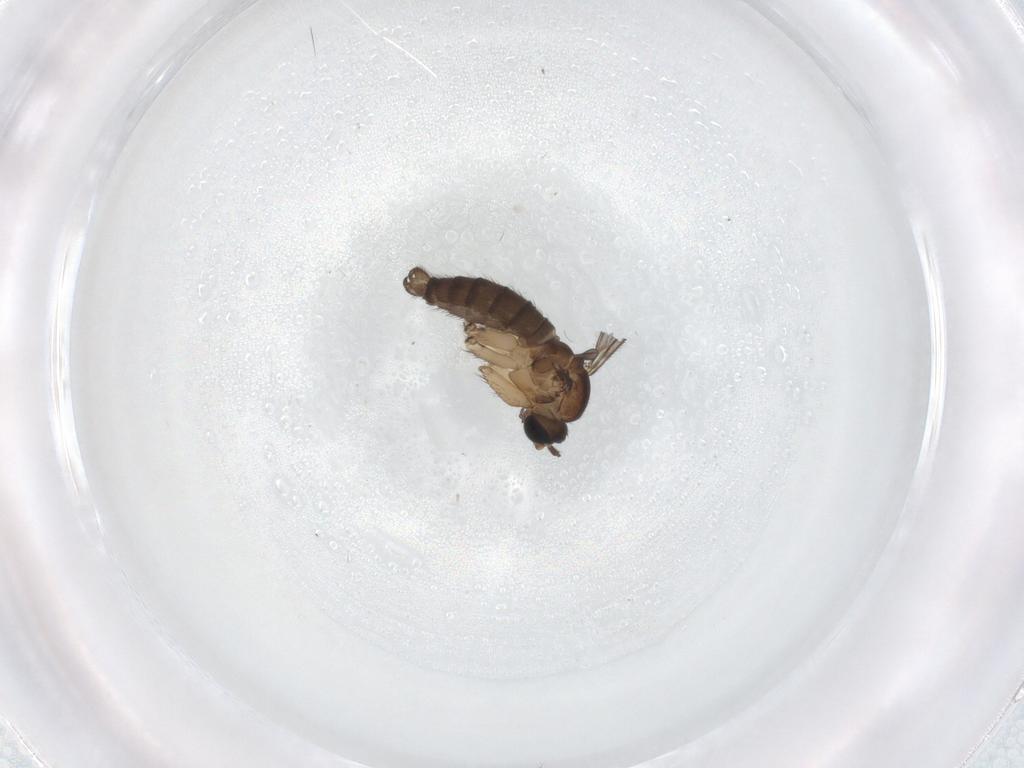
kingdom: Animalia
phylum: Arthropoda
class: Insecta
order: Diptera
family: Sciaridae
